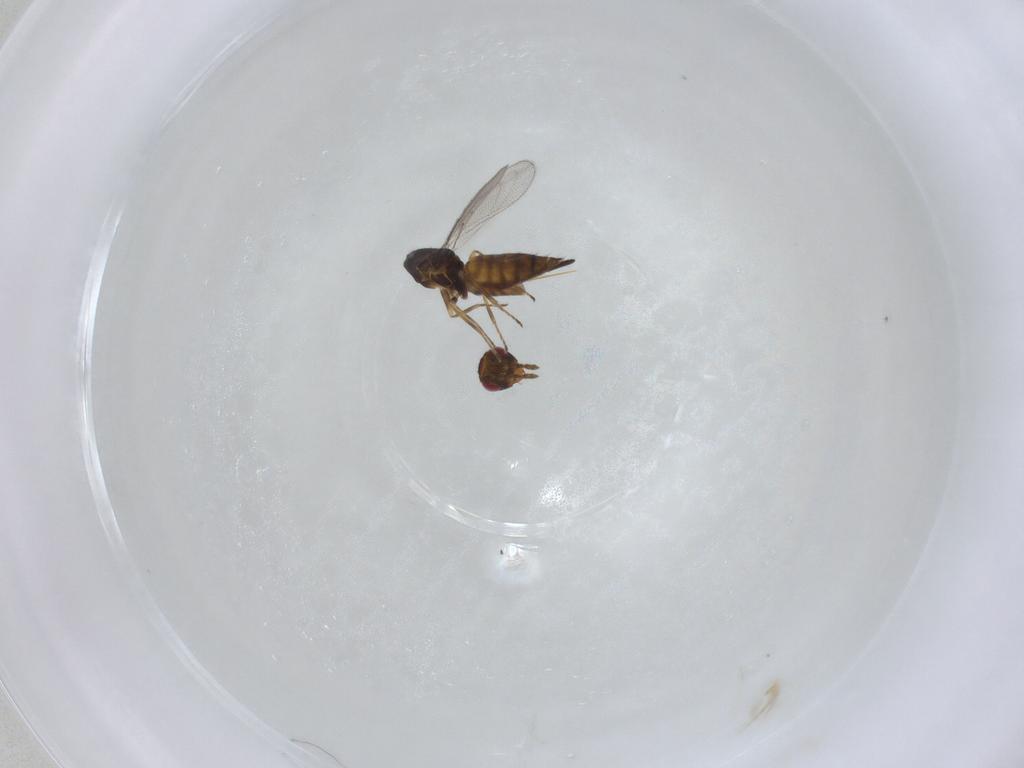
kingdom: Animalia
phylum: Arthropoda
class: Insecta
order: Hymenoptera
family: Eulophidae
